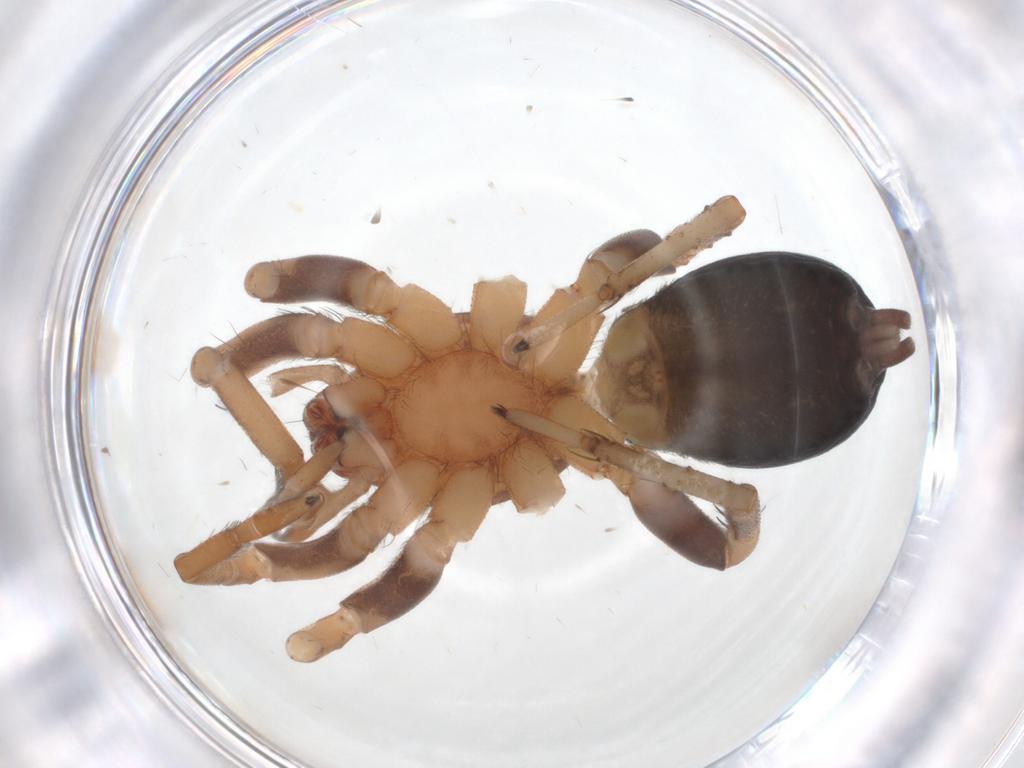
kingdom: Animalia
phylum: Arthropoda
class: Arachnida
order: Araneae
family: Gnaphosidae
